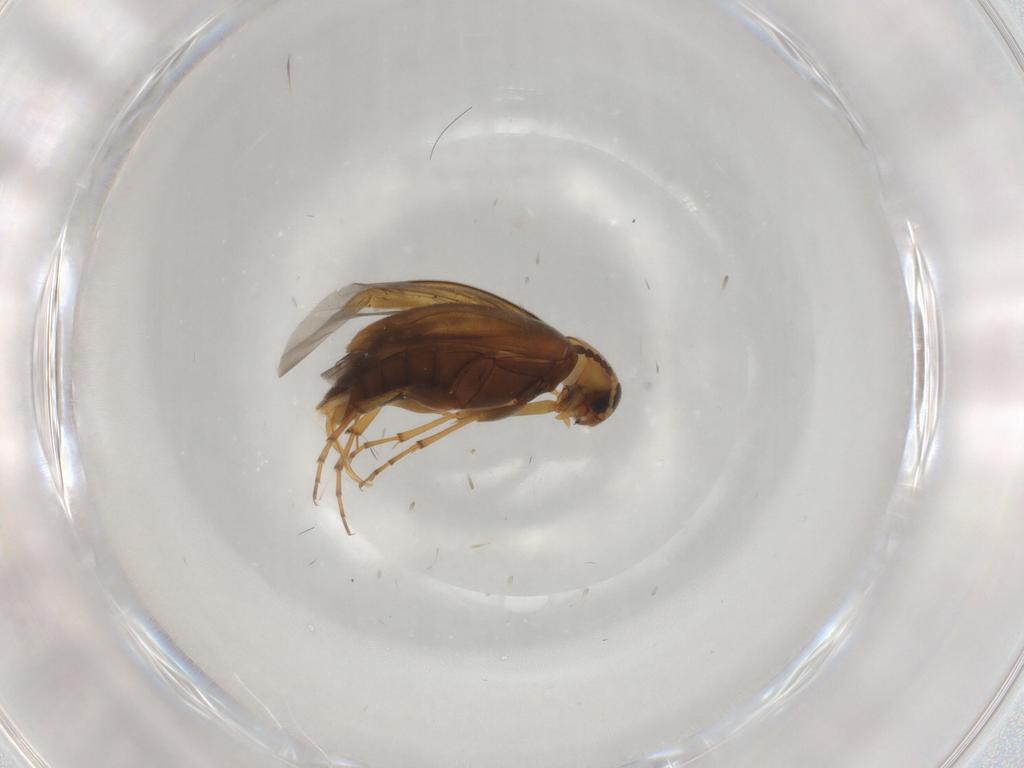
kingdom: Animalia
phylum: Arthropoda
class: Insecta
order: Coleoptera
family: Scraptiidae
